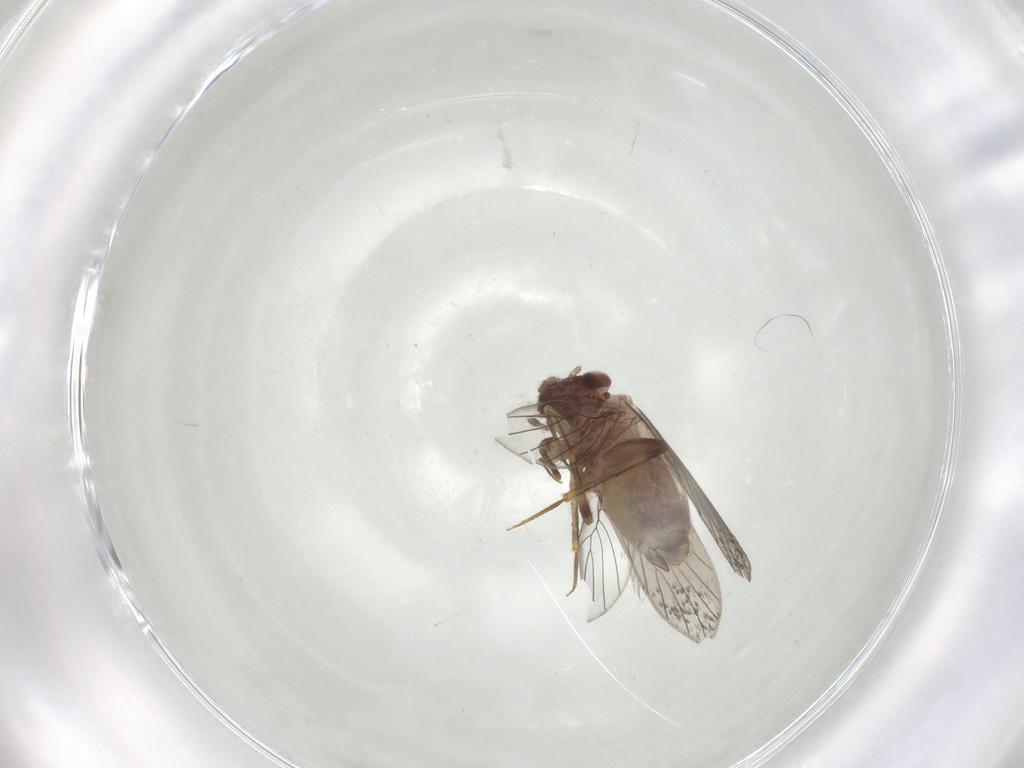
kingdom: Animalia
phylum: Arthropoda
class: Insecta
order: Psocodea
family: Lepidopsocidae
